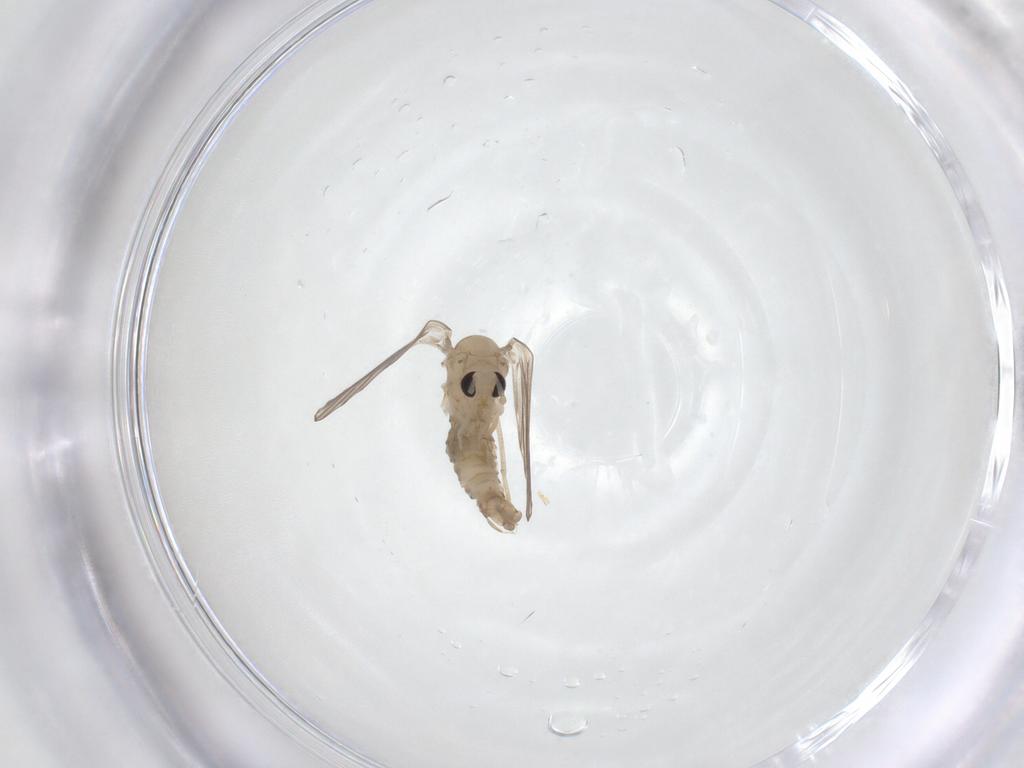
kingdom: Animalia
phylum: Arthropoda
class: Insecta
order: Diptera
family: Psychodidae
